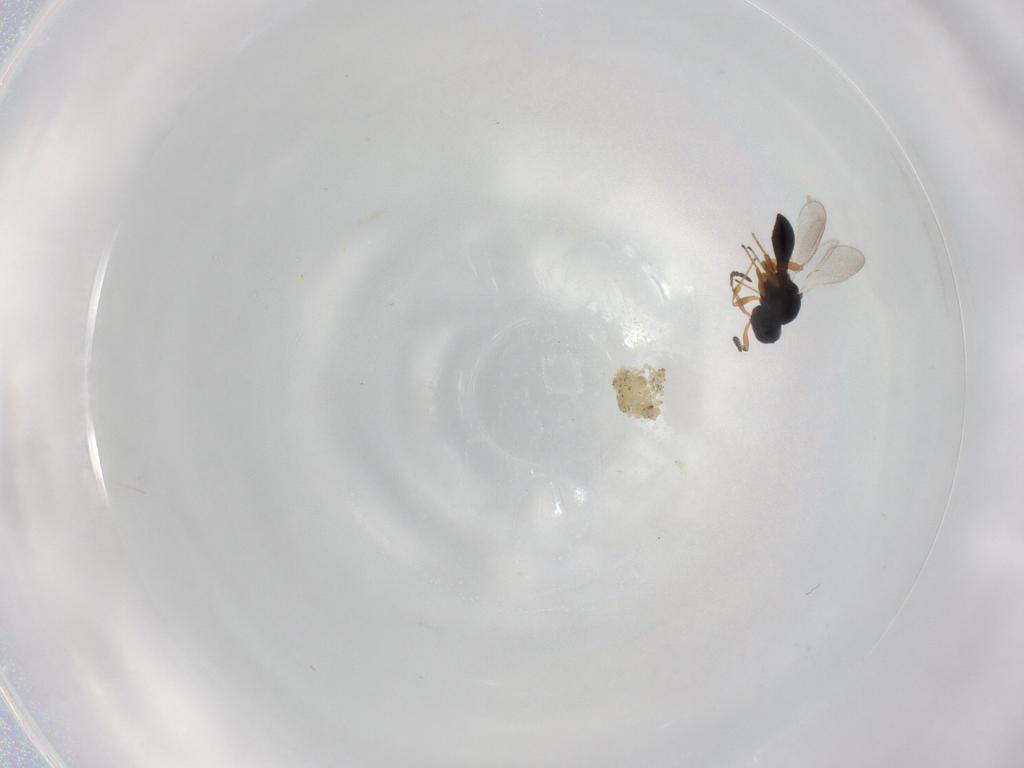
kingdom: Animalia
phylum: Arthropoda
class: Insecta
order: Hymenoptera
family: Platygastridae
